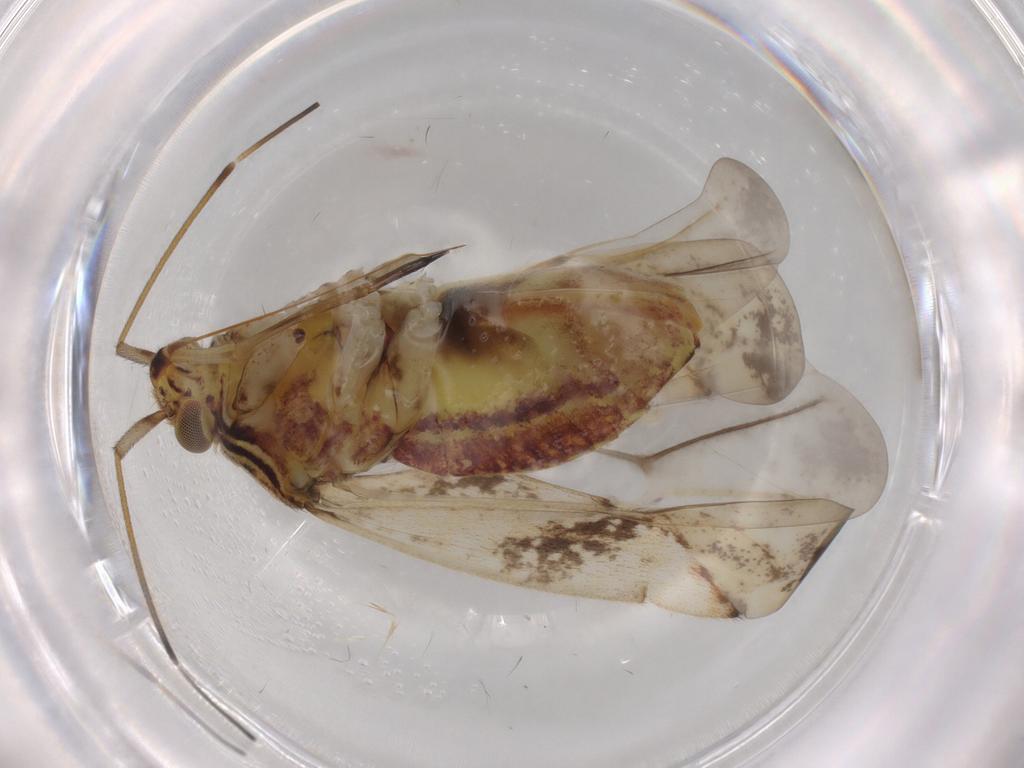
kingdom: Animalia
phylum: Arthropoda
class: Insecta
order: Hemiptera
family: Miridae
